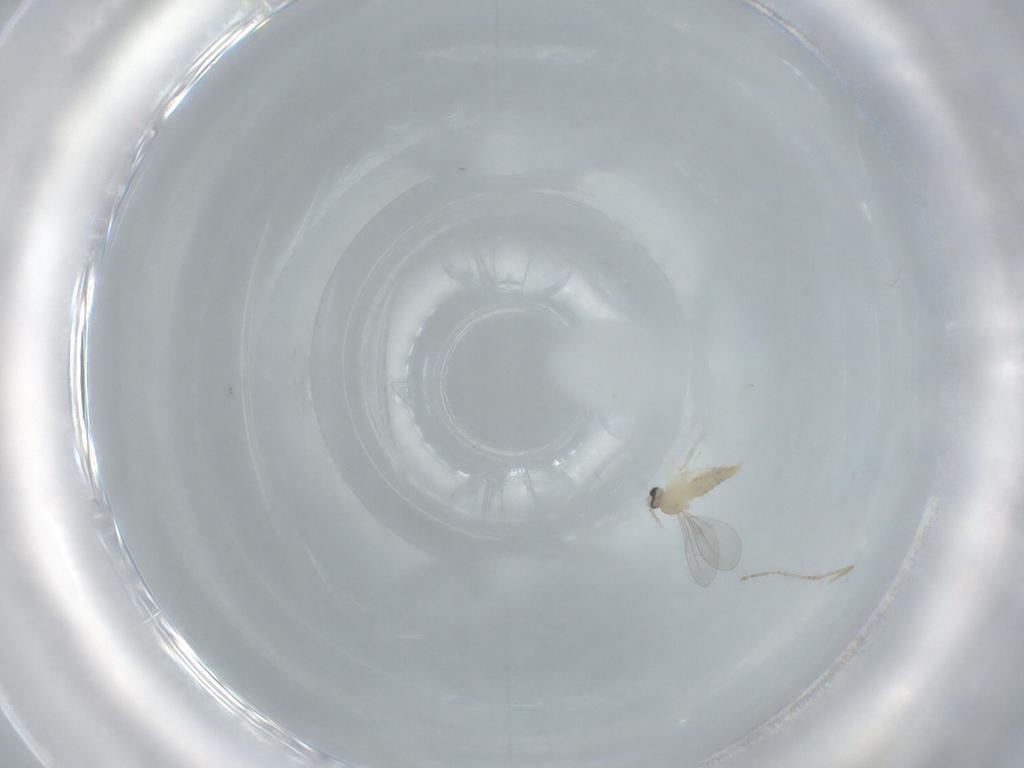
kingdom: Animalia
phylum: Arthropoda
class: Insecta
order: Diptera
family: Cecidomyiidae
